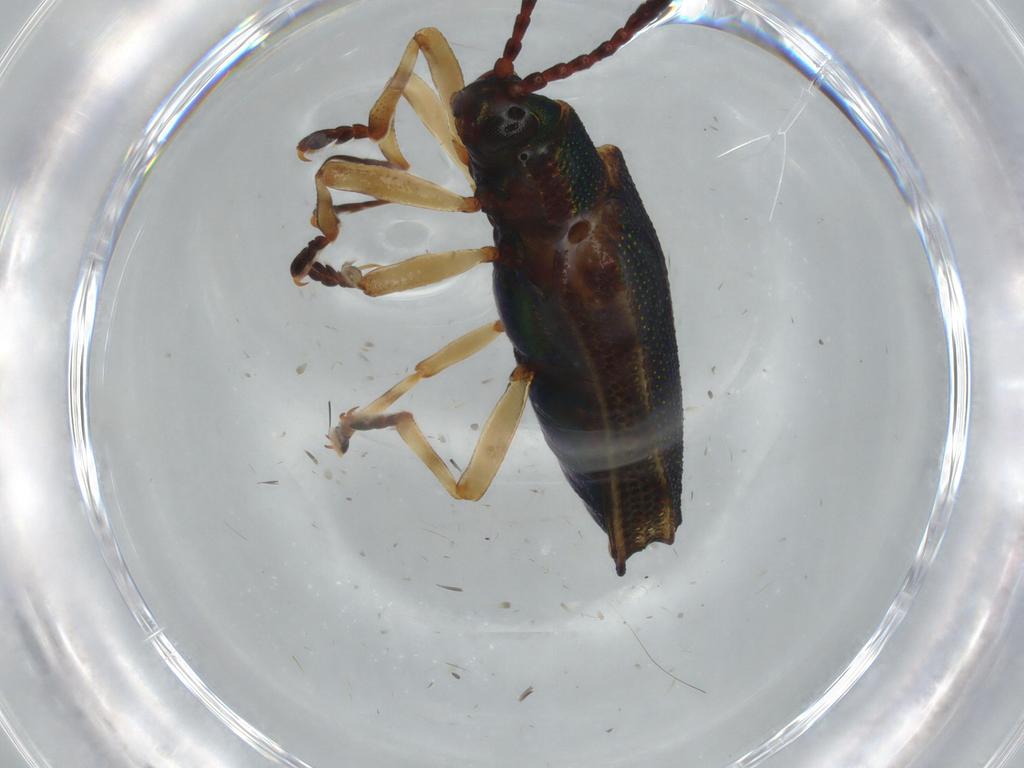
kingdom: Animalia
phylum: Arthropoda
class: Insecta
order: Coleoptera
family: Chrysomelidae
